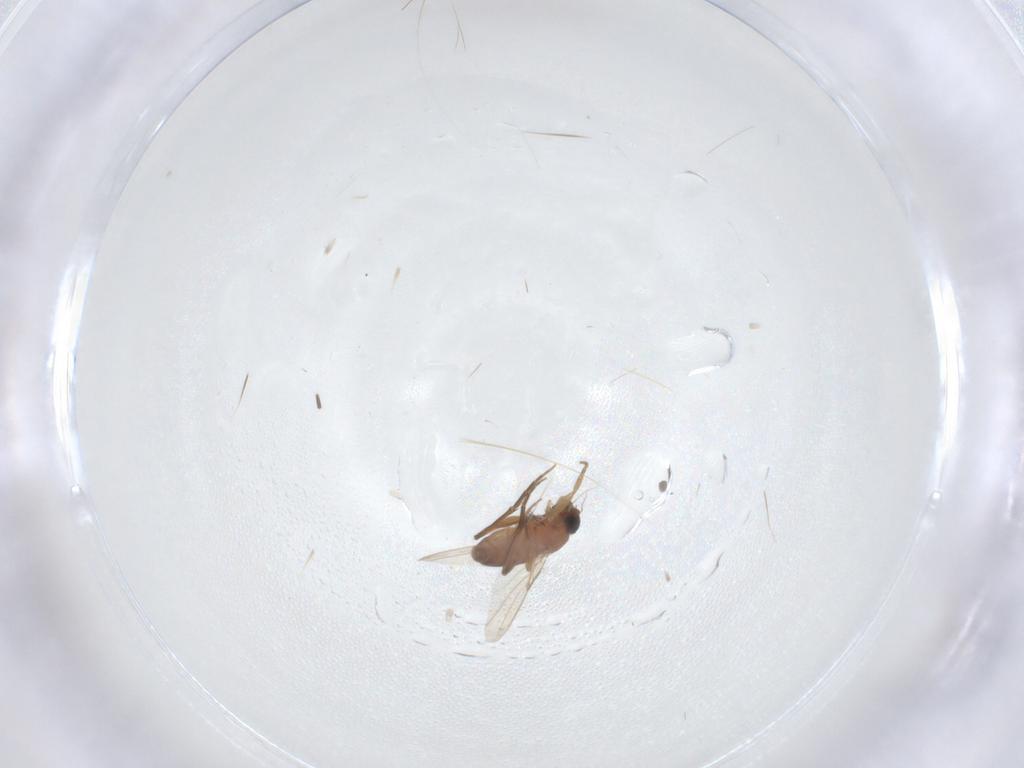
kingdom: Animalia
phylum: Arthropoda
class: Insecta
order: Diptera
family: Phoridae
